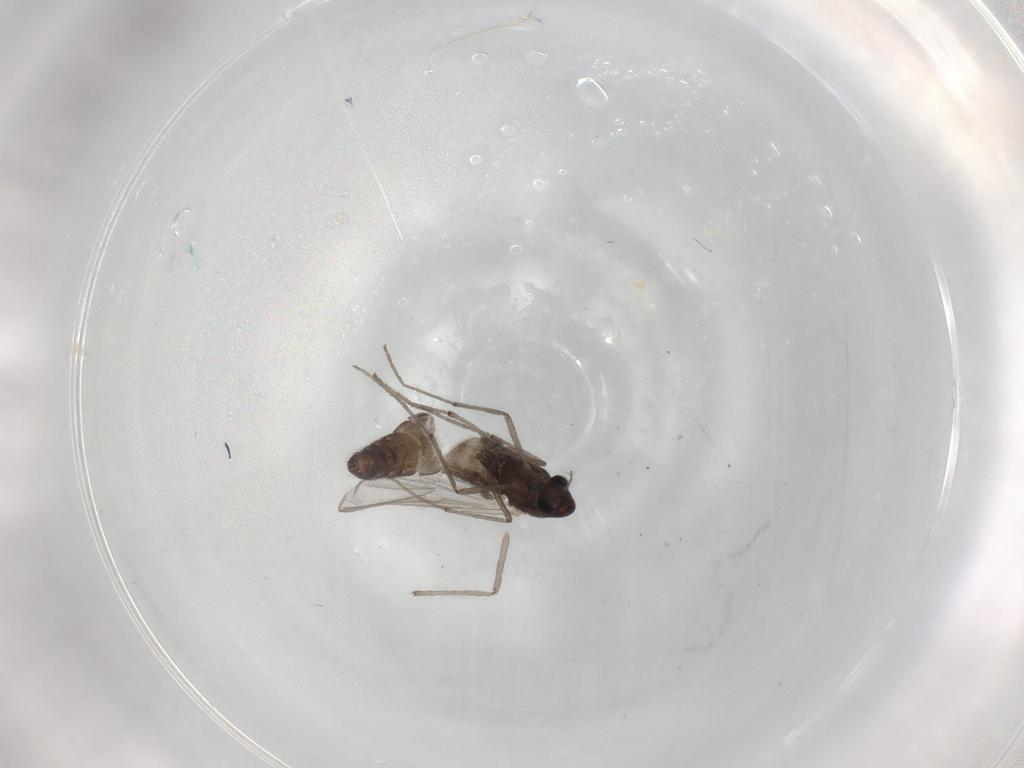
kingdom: Animalia
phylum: Arthropoda
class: Insecta
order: Diptera
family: Chironomidae
